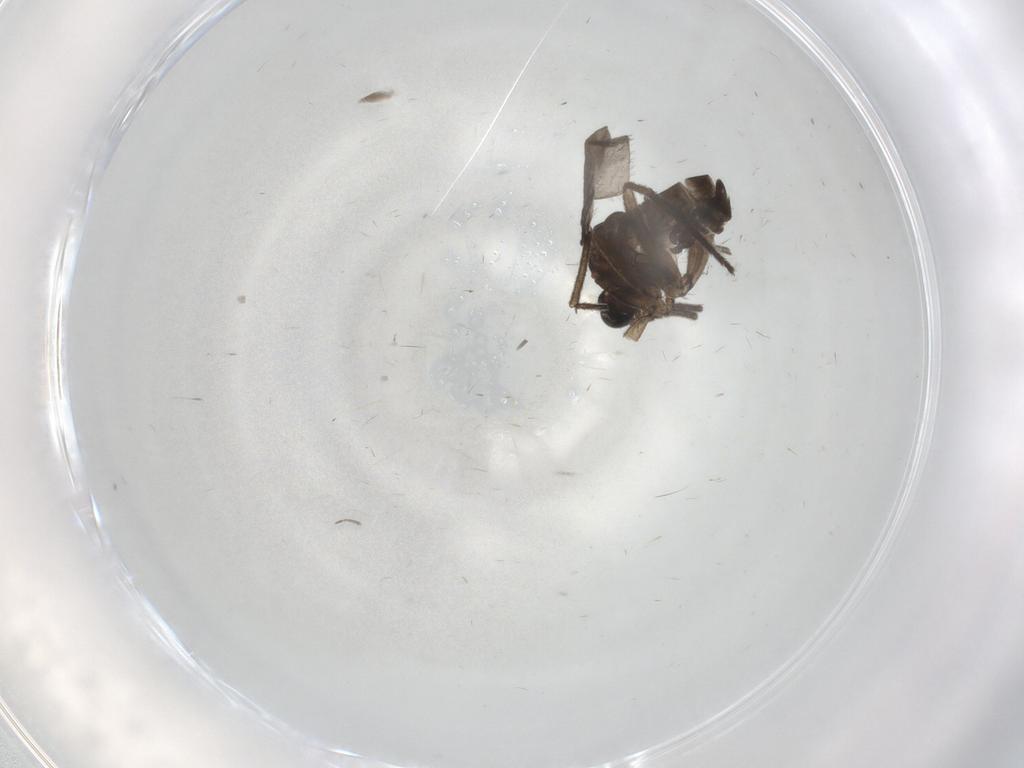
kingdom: Animalia
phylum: Arthropoda
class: Insecta
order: Diptera
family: Sciaridae
